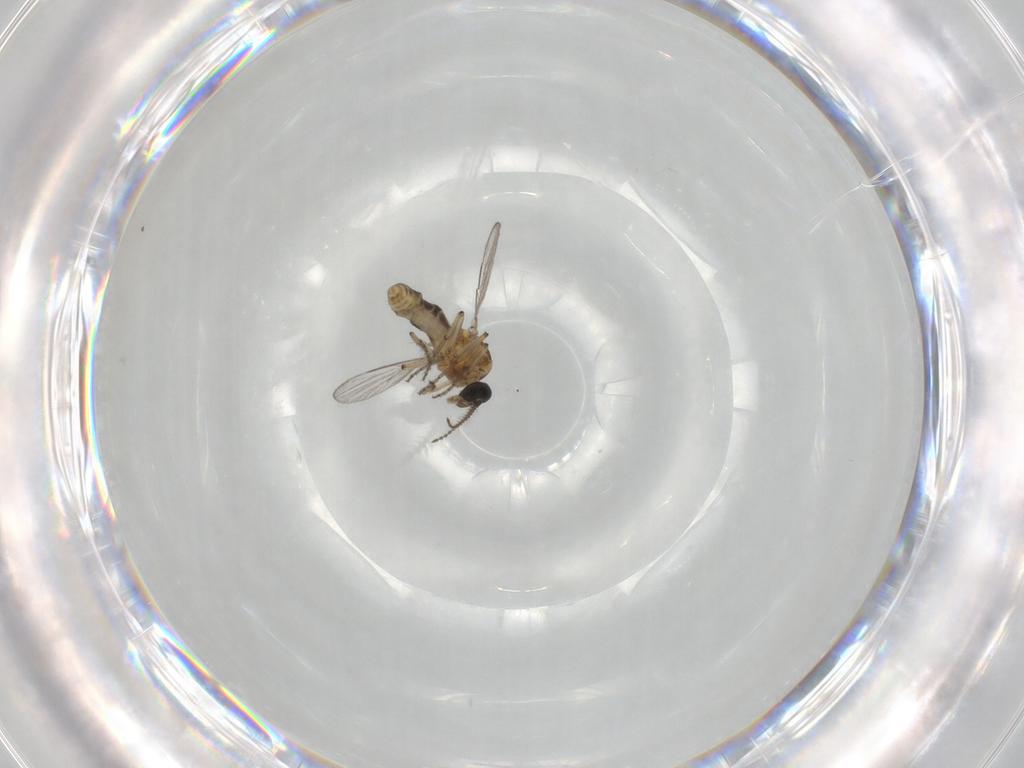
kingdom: Animalia
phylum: Arthropoda
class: Insecta
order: Diptera
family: Ceratopogonidae
